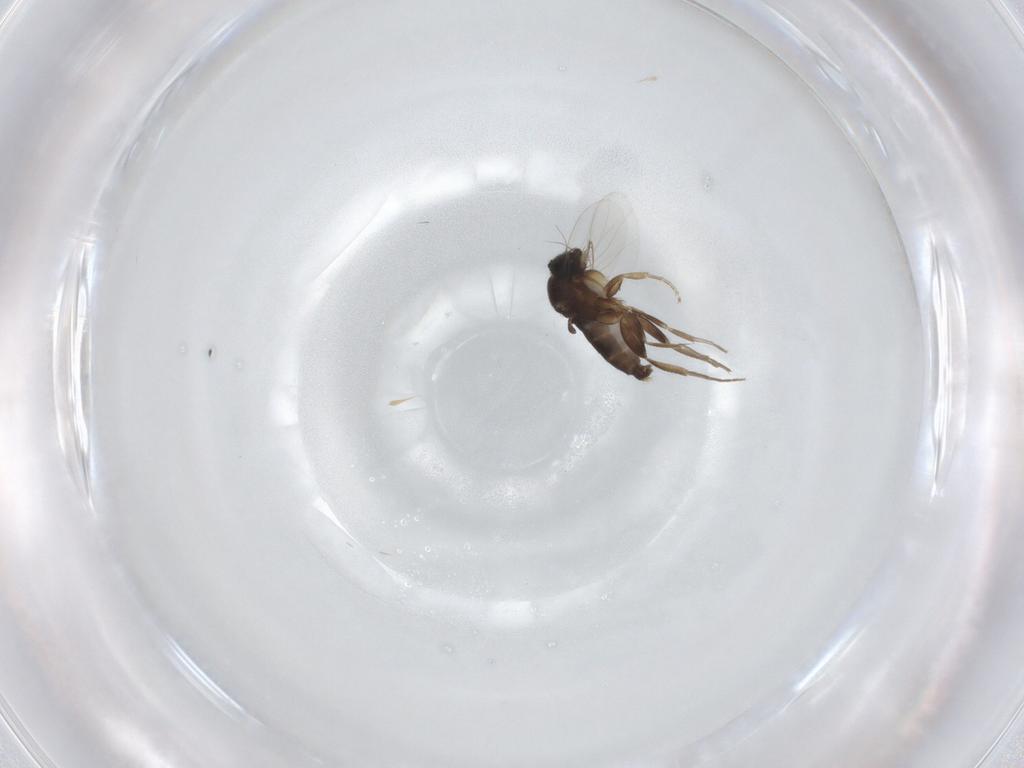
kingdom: Animalia
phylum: Arthropoda
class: Insecta
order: Diptera
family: Phoridae
